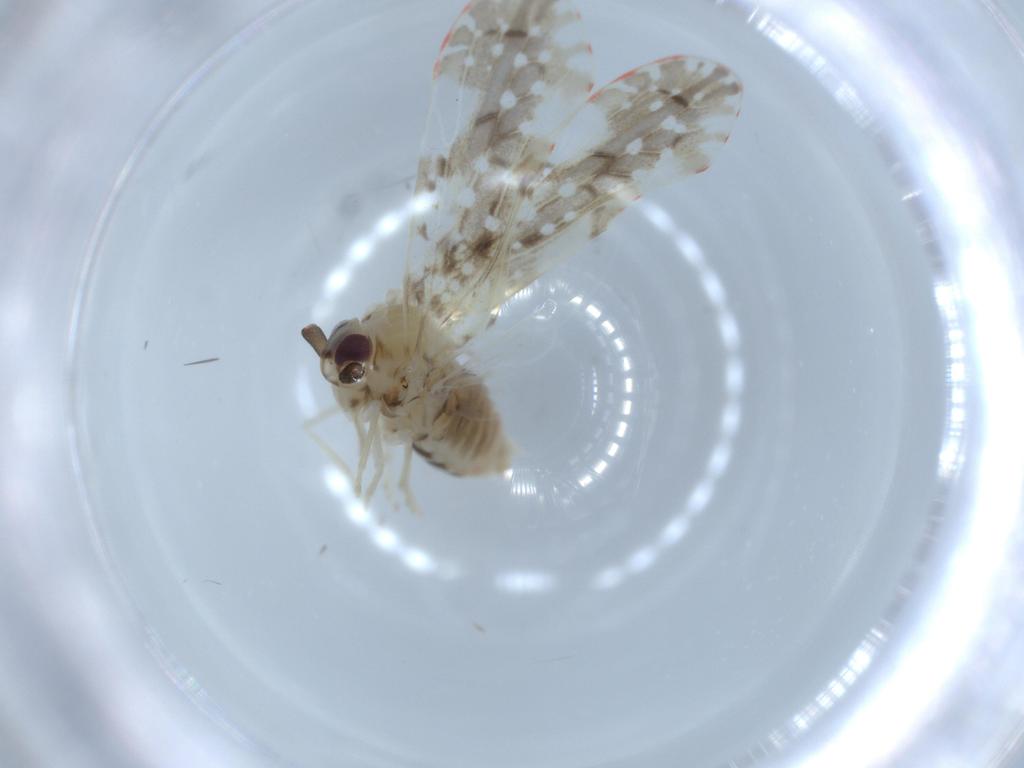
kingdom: Animalia
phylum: Arthropoda
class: Insecta
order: Hemiptera
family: Derbidae
